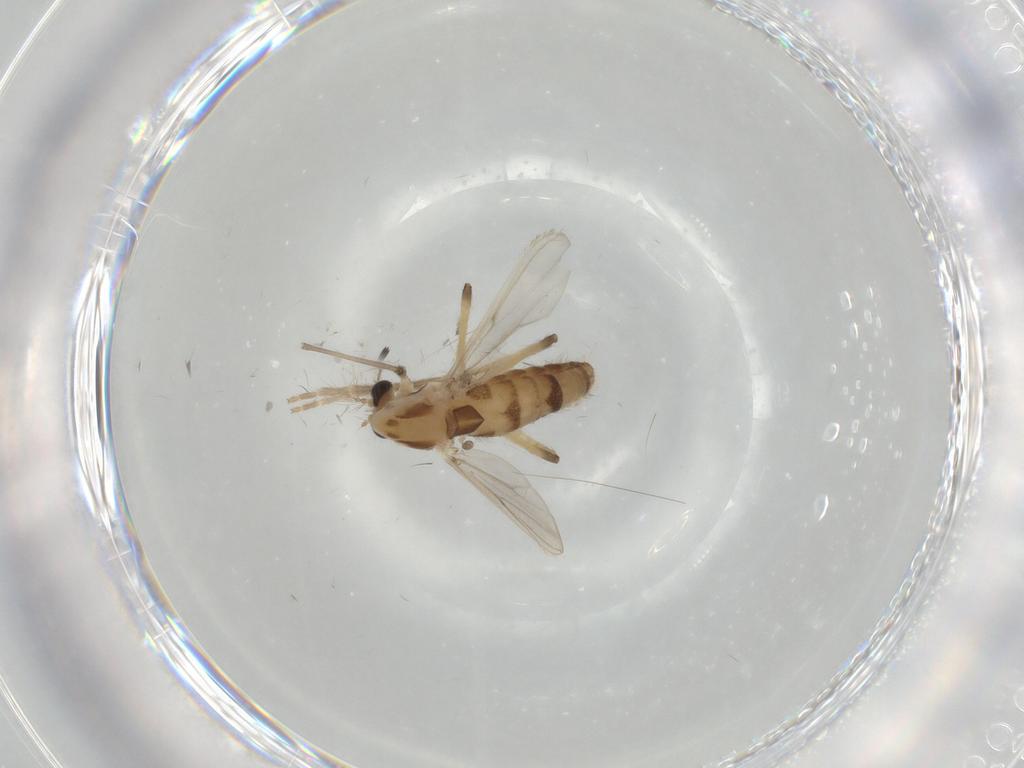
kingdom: Animalia
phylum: Arthropoda
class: Insecta
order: Diptera
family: Chironomidae
